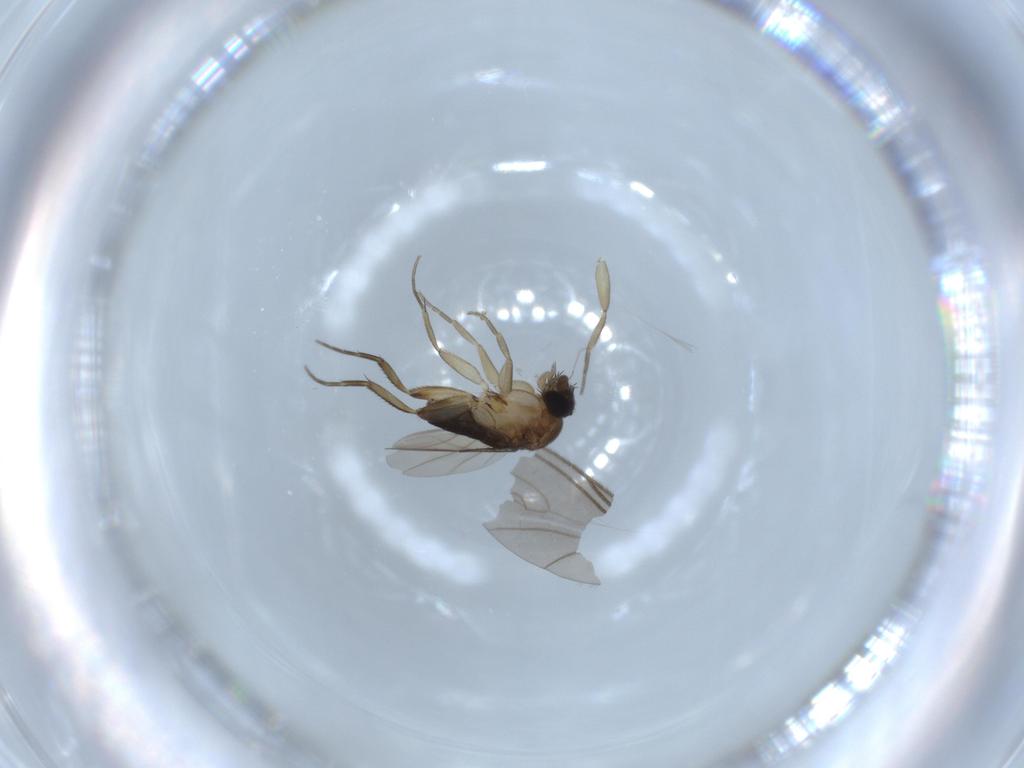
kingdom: Animalia
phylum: Arthropoda
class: Insecta
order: Diptera
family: Phoridae
